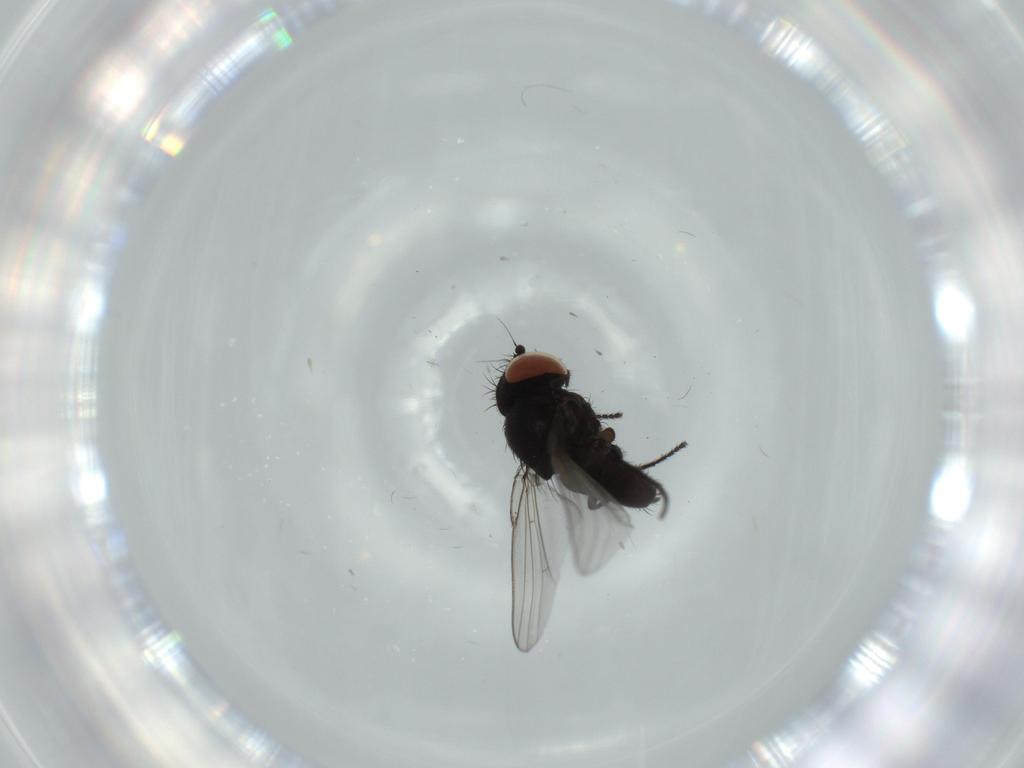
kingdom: Animalia
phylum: Arthropoda
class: Insecta
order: Diptera
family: Milichiidae
